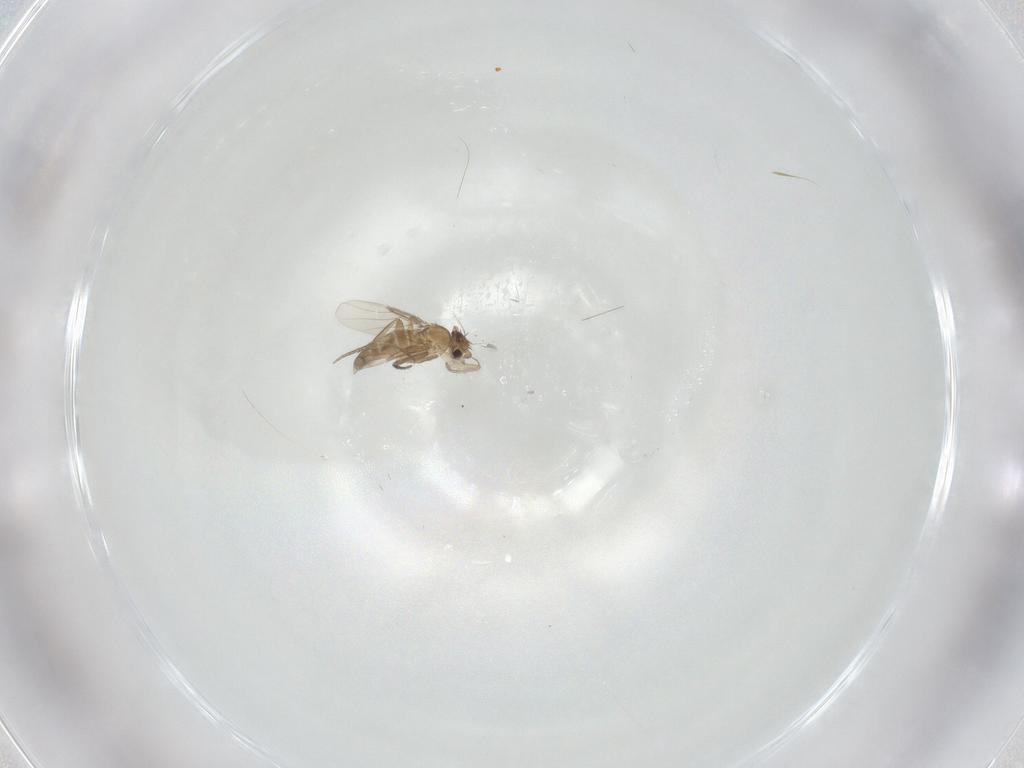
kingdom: Animalia
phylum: Arthropoda
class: Insecta
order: Diptera
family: Phoridae
